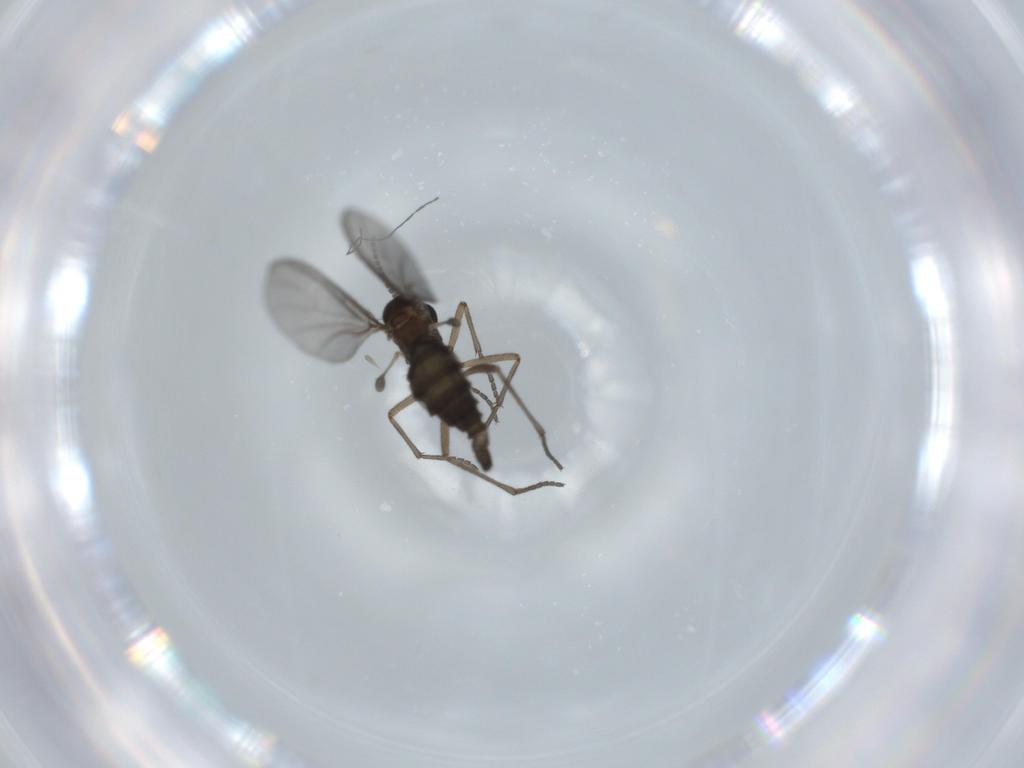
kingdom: Animalia
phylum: Arthropoda
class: Insecta
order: Diptera
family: Sciaridae
